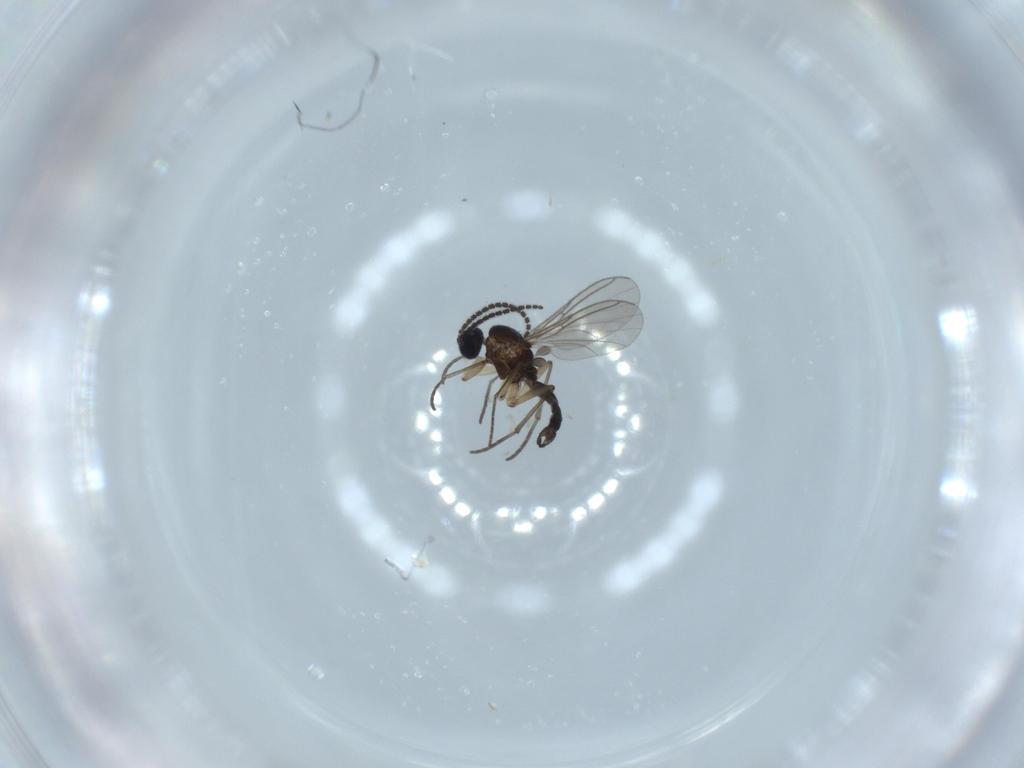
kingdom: Animalia
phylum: Arthropoda
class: Insecta
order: Diptera
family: Sciaridae
